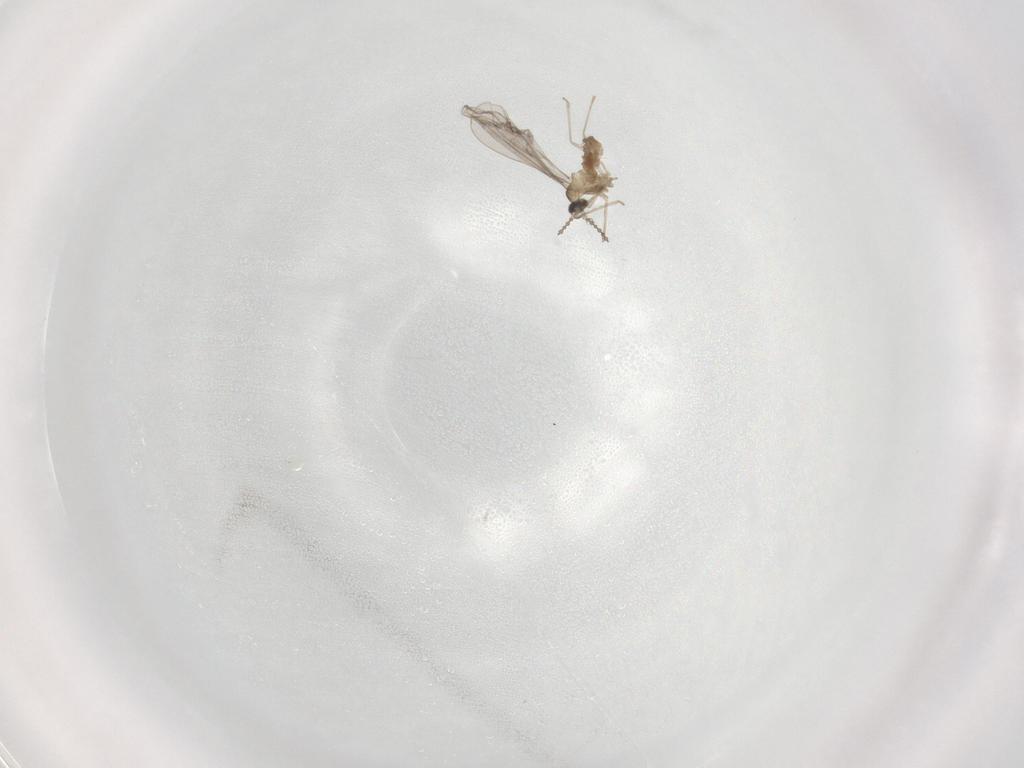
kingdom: Animalia
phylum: Arthropoda
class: Insecta
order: Diptera
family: Cecidomyiidae
